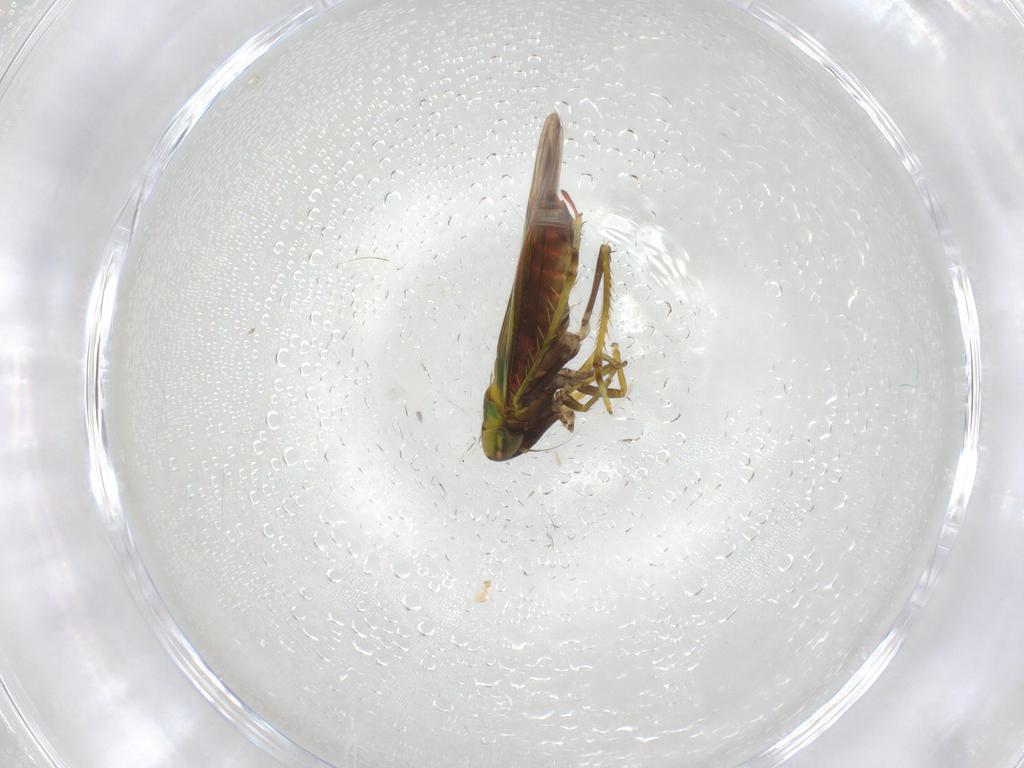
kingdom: Animalia
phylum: Arthropoda
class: Insecta
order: Hemiptera
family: Cicadellidae
